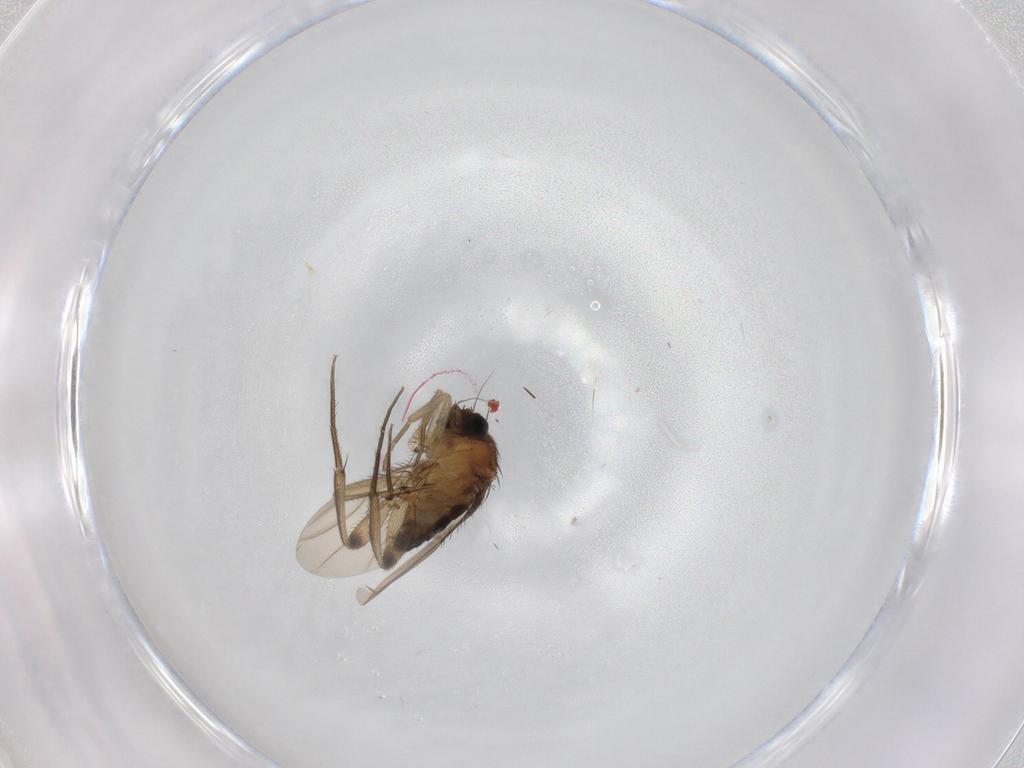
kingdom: Animalia
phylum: Arthropoda
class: Insecta
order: Diptera
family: Phoridae
